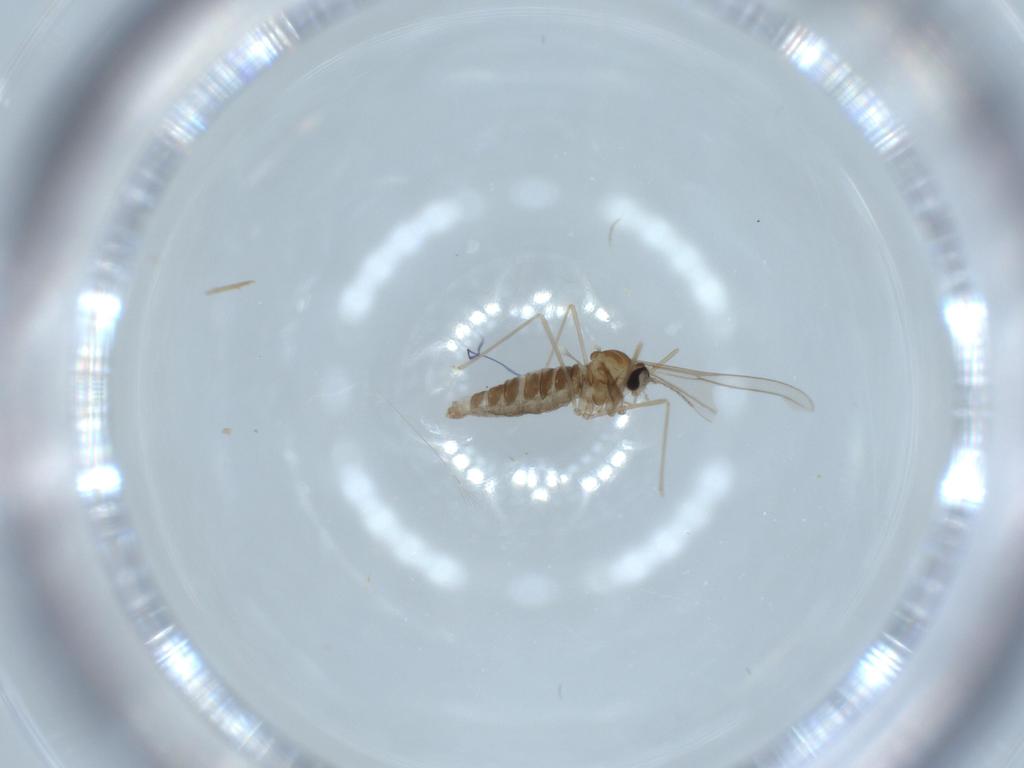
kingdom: Animalia
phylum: Arthropoda
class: Insecta
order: Diptera
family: Cecidomyiidae
